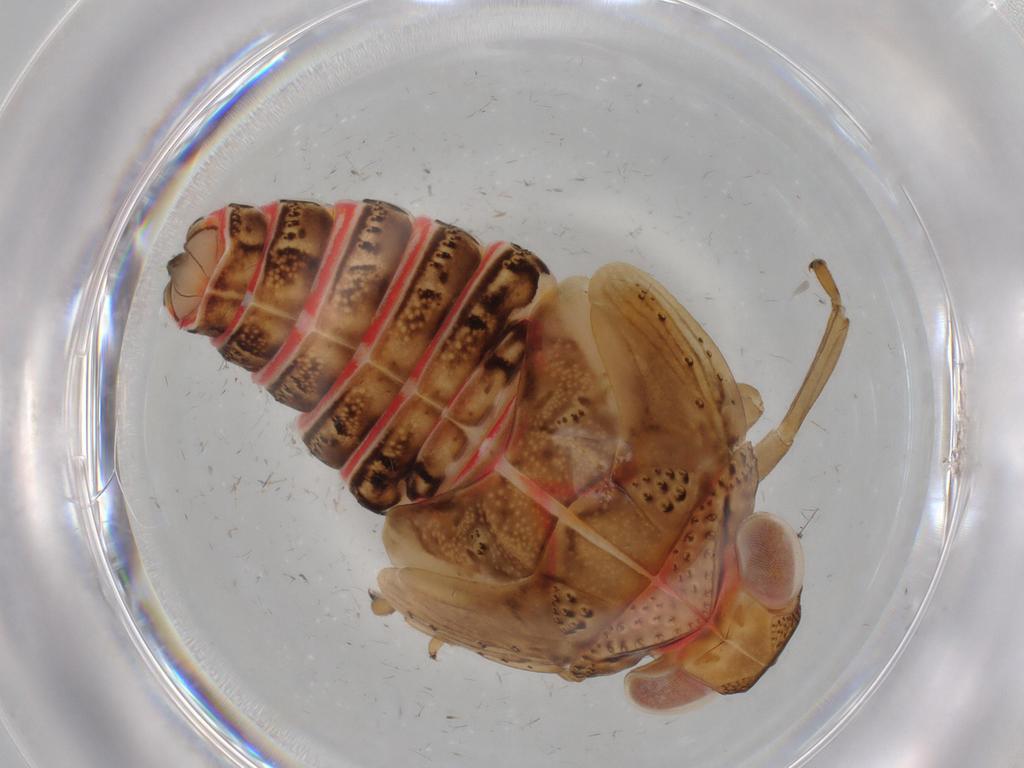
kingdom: Animalia
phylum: Arthropoda
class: Insecta
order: Hemiptera
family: Issidae
